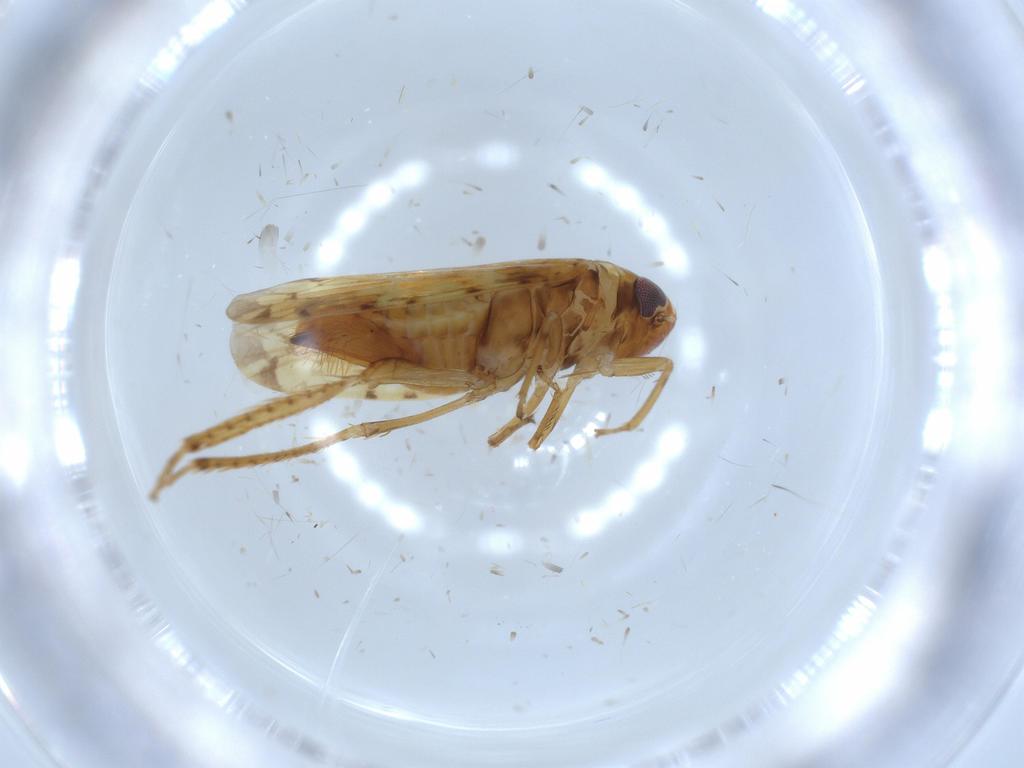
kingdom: Animalia
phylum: Arthropoda
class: Insecta
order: Hemiptera
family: Cicadellidae
